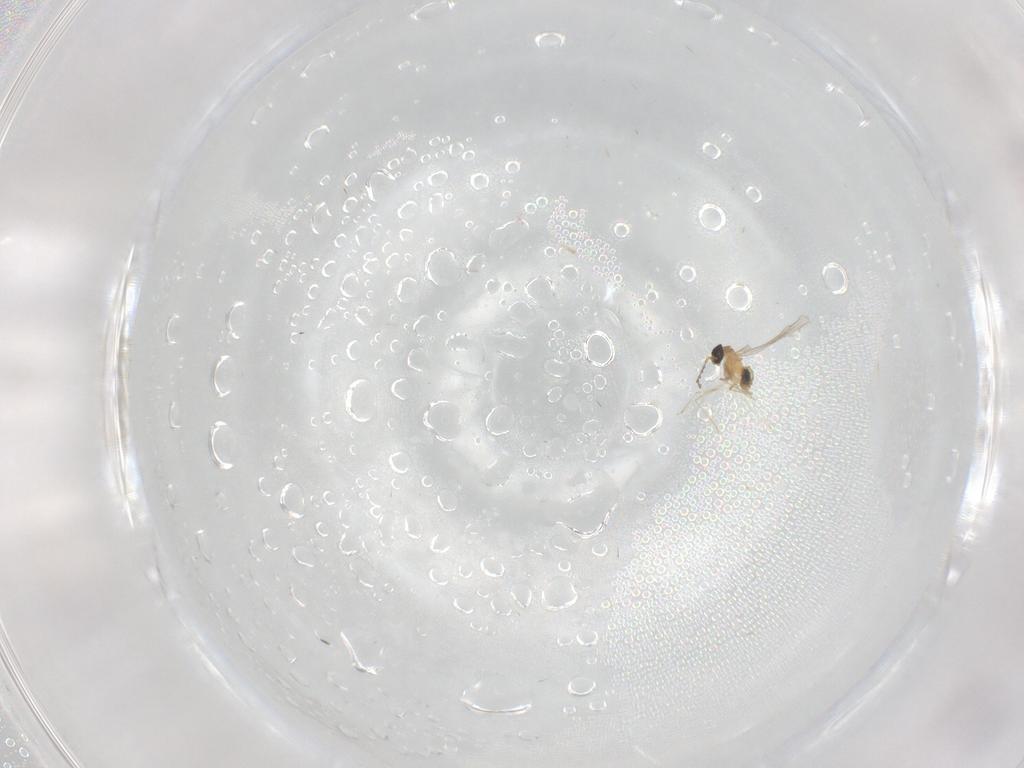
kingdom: Animalia
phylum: Arthropoda
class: Insecta
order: Diptera
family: Cecidomyiidae
